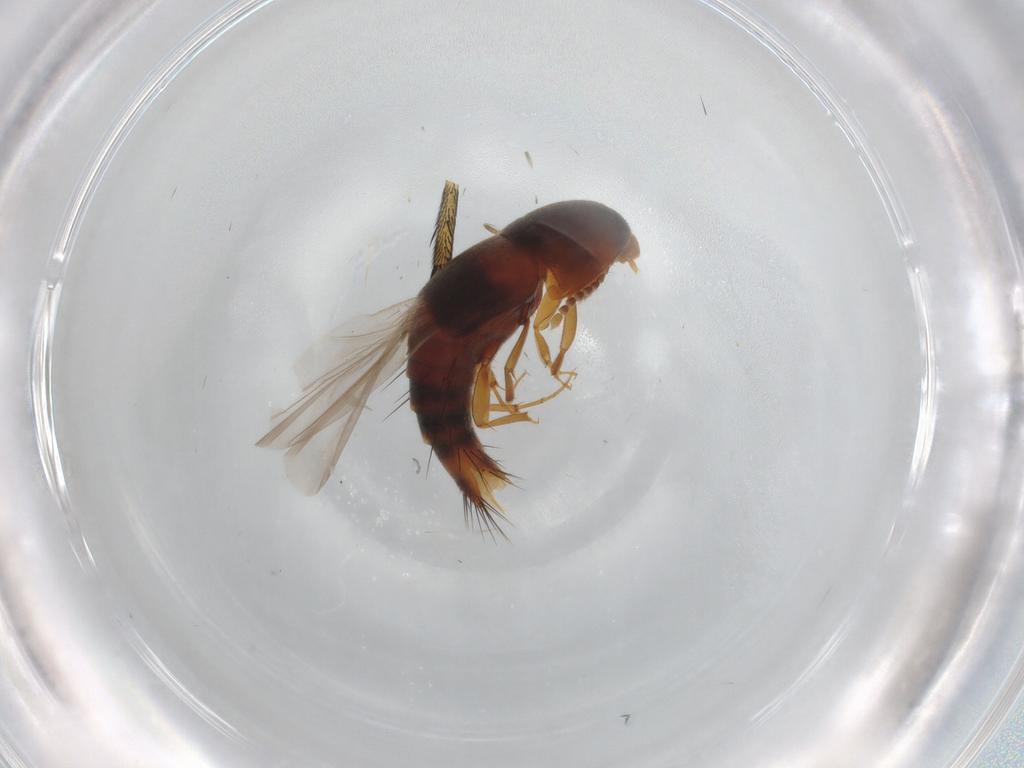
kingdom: Animalia
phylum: Arthropoda
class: Insecta
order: Coleoptera
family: Staphylinidae
